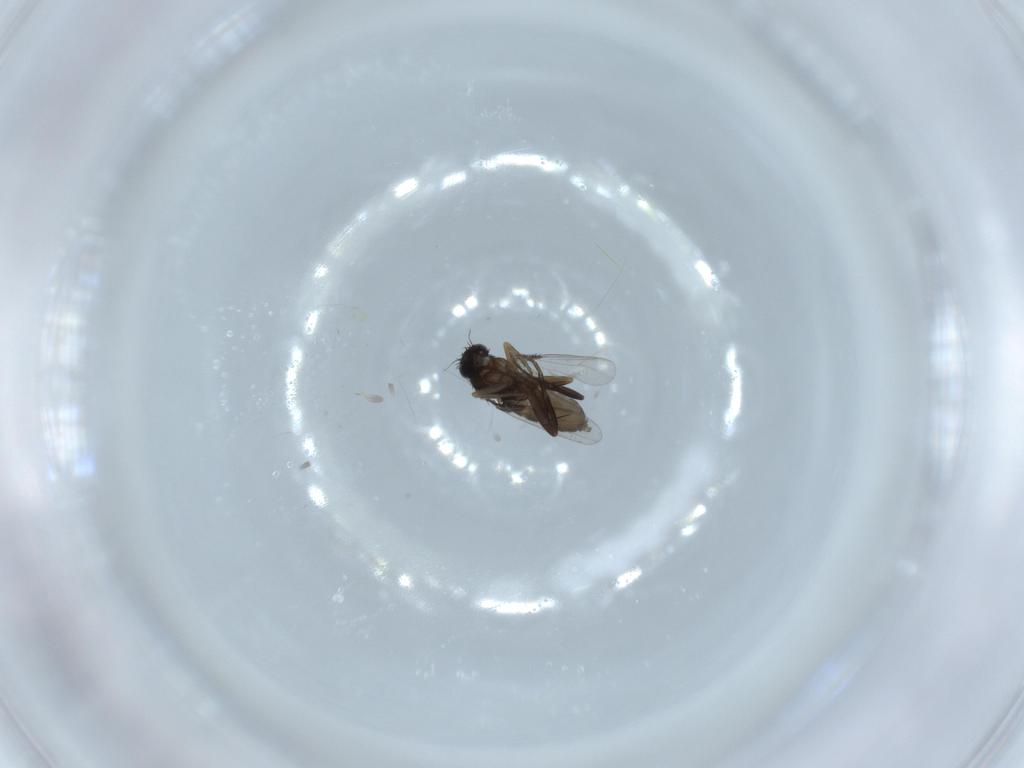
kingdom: Animalia
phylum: Arthropoda
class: Insecta
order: Diptera
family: Phoridae
